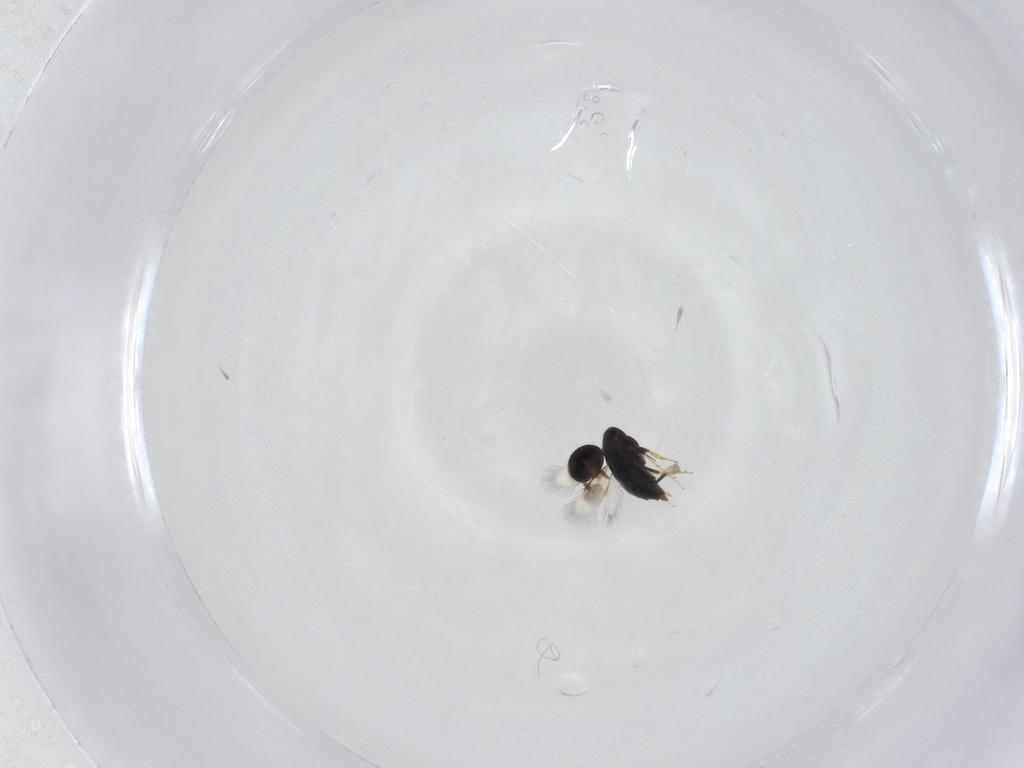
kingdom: Animalia
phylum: Arthropoda
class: Insecta
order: Hymenoptera
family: Signiphoridae
